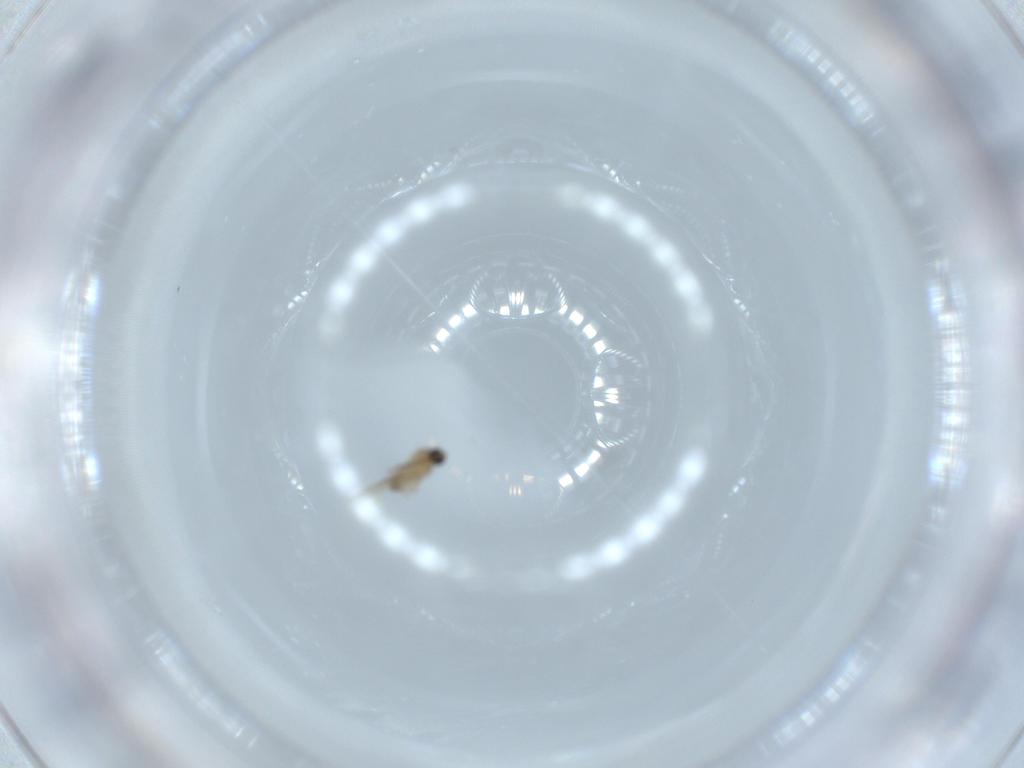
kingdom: Animalia
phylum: Arthropoda
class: Insecta
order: Diptera
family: Cecidomyiidae
